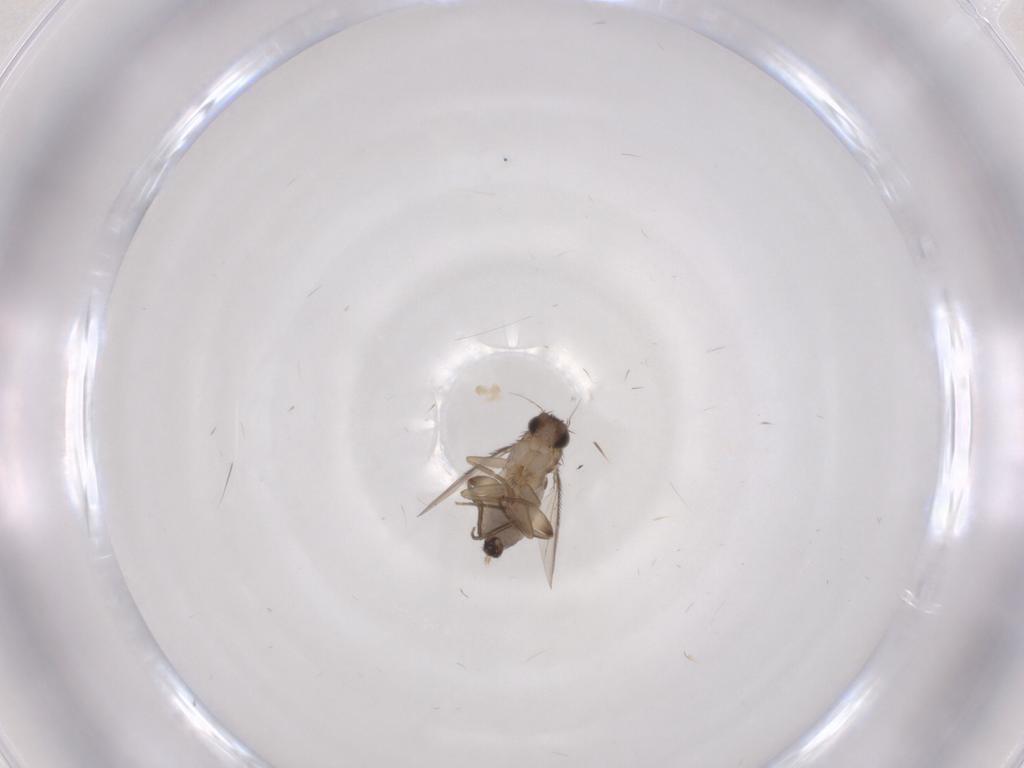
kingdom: Animalia
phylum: Arthropoda
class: Insecta
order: Diptera
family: Phoridae
